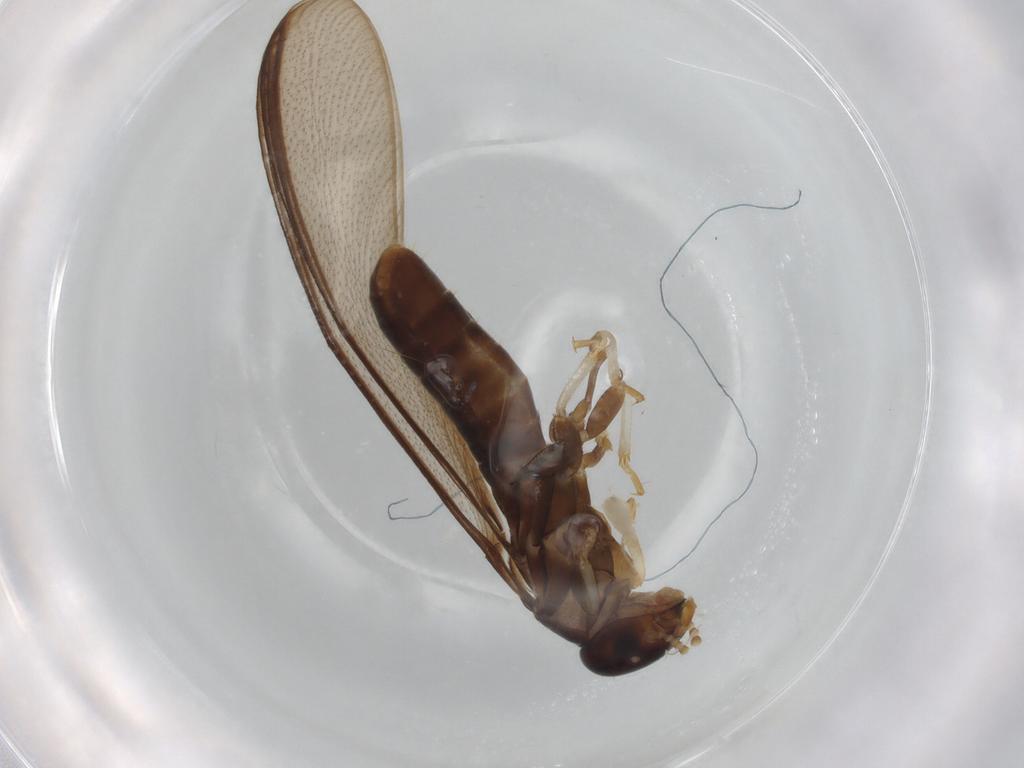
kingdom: Animalia
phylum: Arthropoda
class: Insecta
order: Blattodea
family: Kalotermitidae
